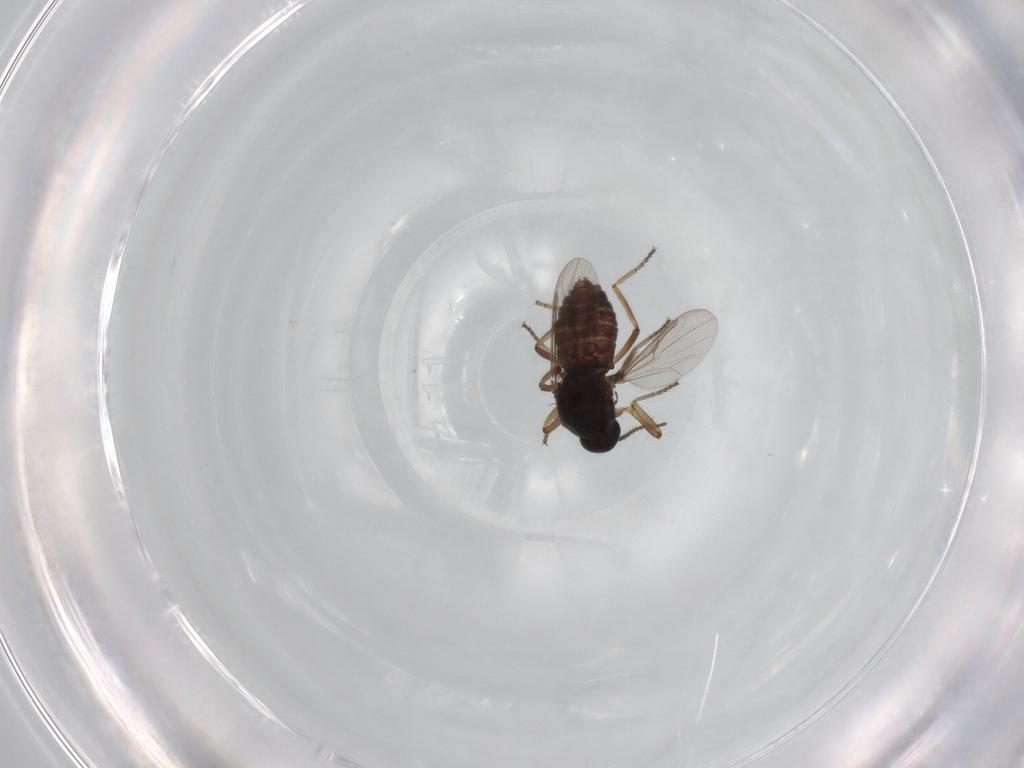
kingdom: Animalia
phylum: Arthropoda
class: Insecta
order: Diptera
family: Ceratopogonidae
